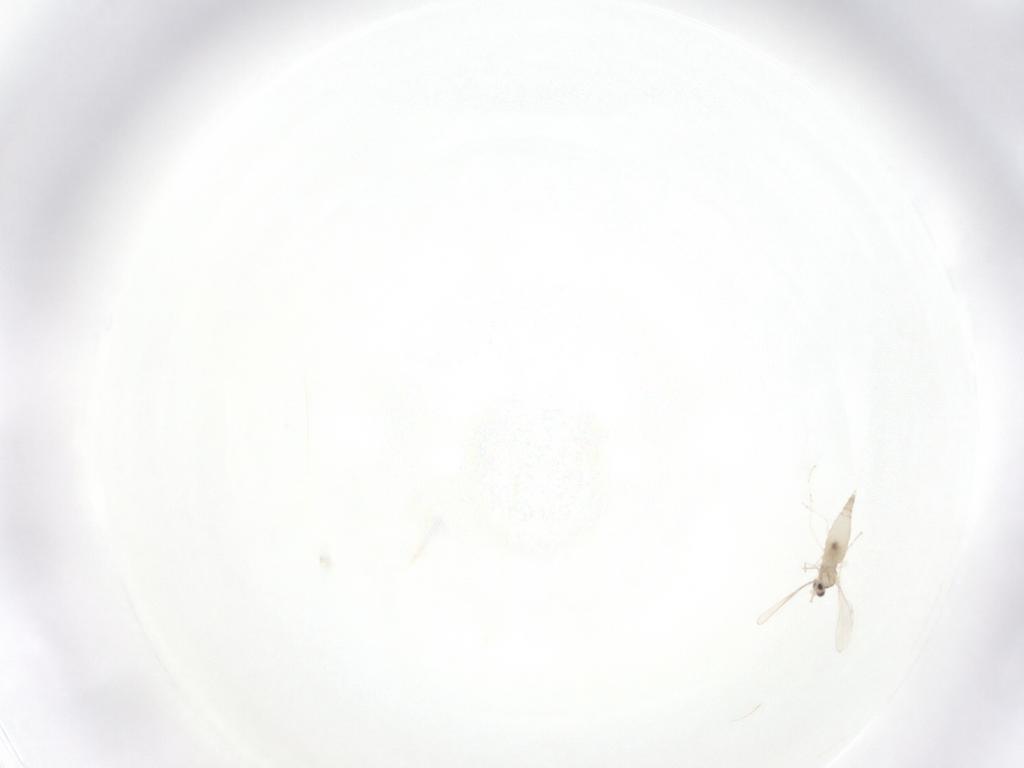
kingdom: Animalia
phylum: Arthropoda
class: Insecta
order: Diptera
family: Cecidomyiidae
